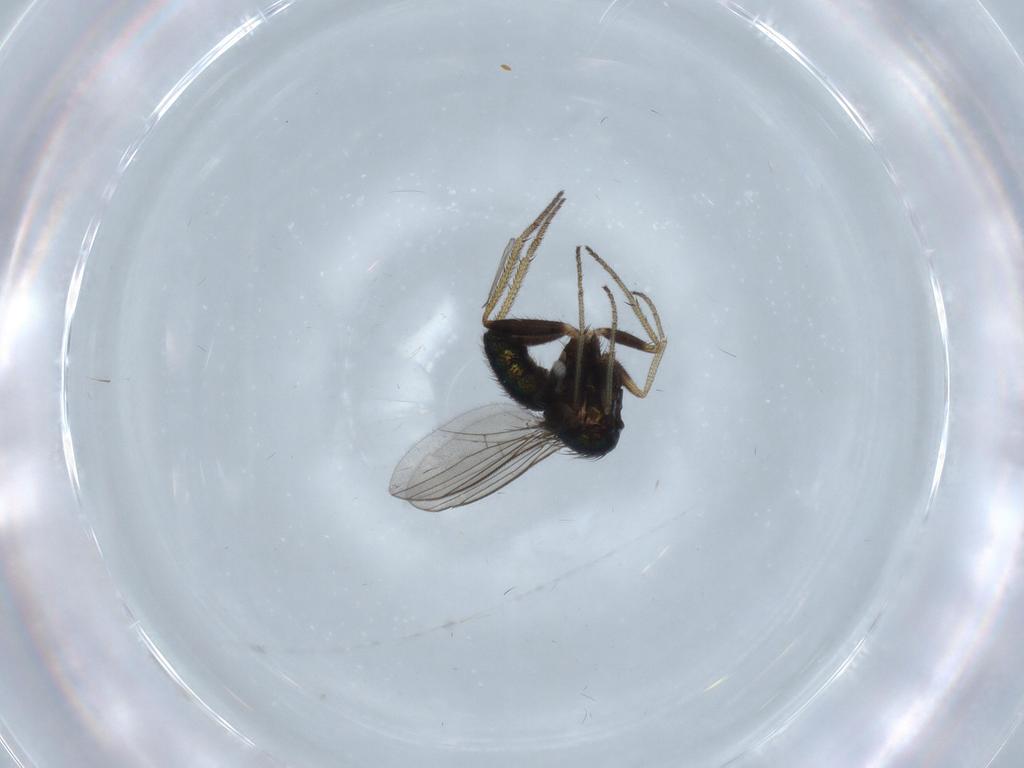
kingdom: Animalia
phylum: Arthropoda
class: Insecta
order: Diptera
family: Dolichopodidae
